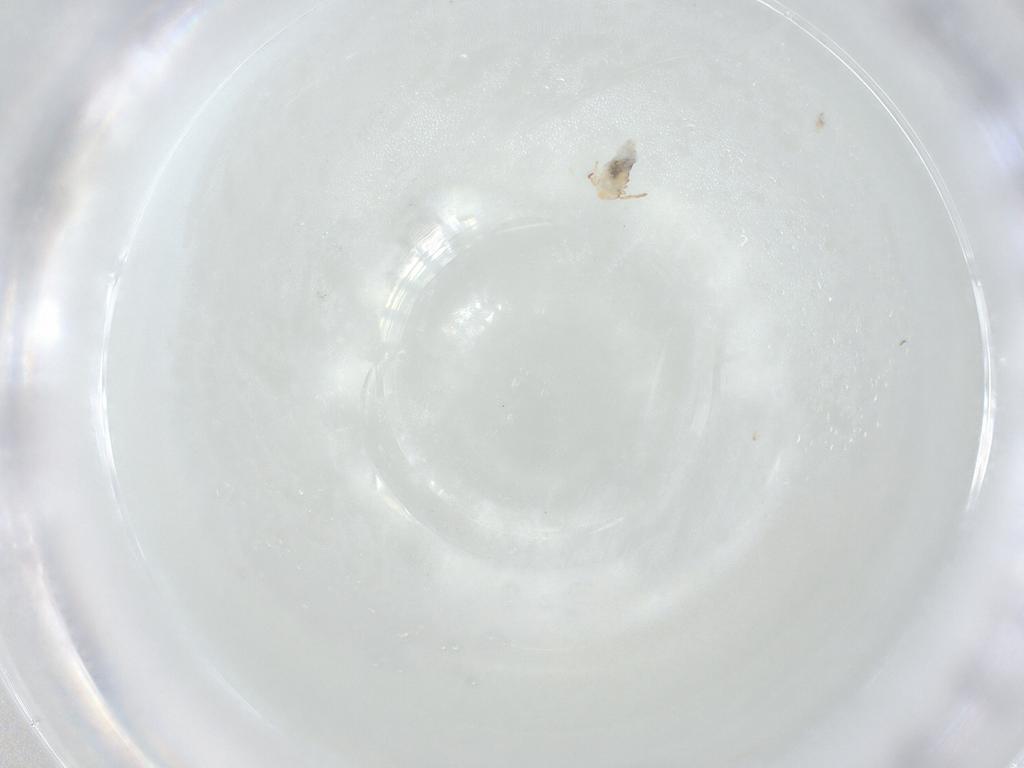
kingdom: Animalia
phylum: Arthropoda
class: Collembola
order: Symphypleona
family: Bourletiellidae
